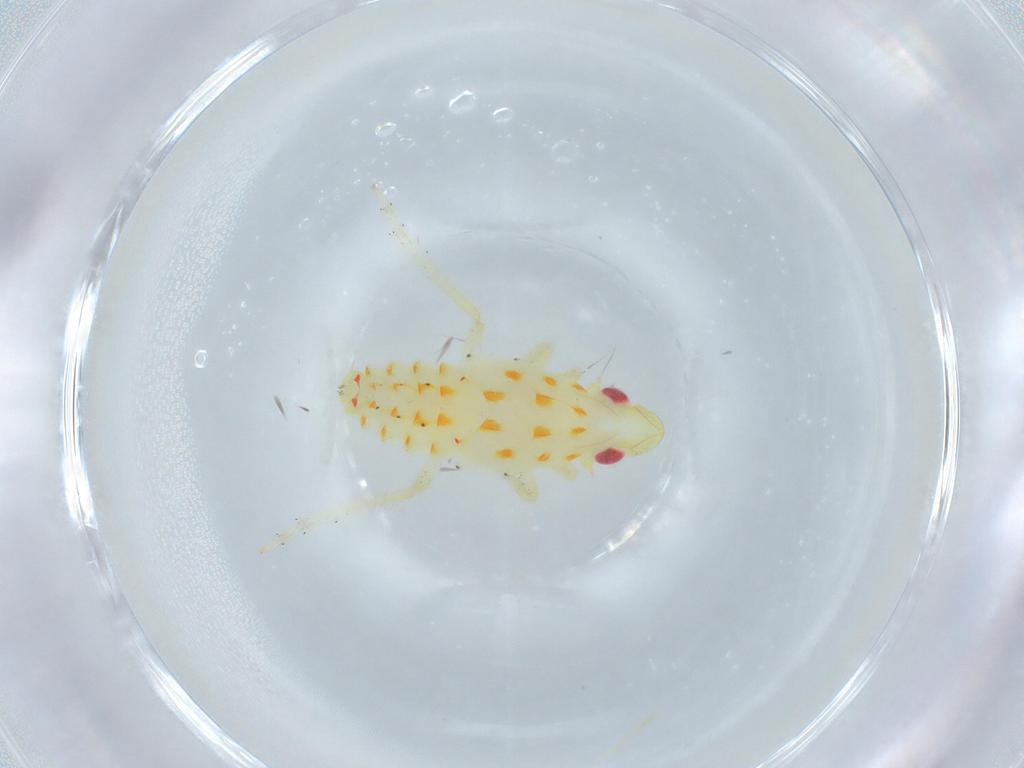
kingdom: Animalia
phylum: Arthropoda
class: Insecta
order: Hemiptera
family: Tropiduchidae
